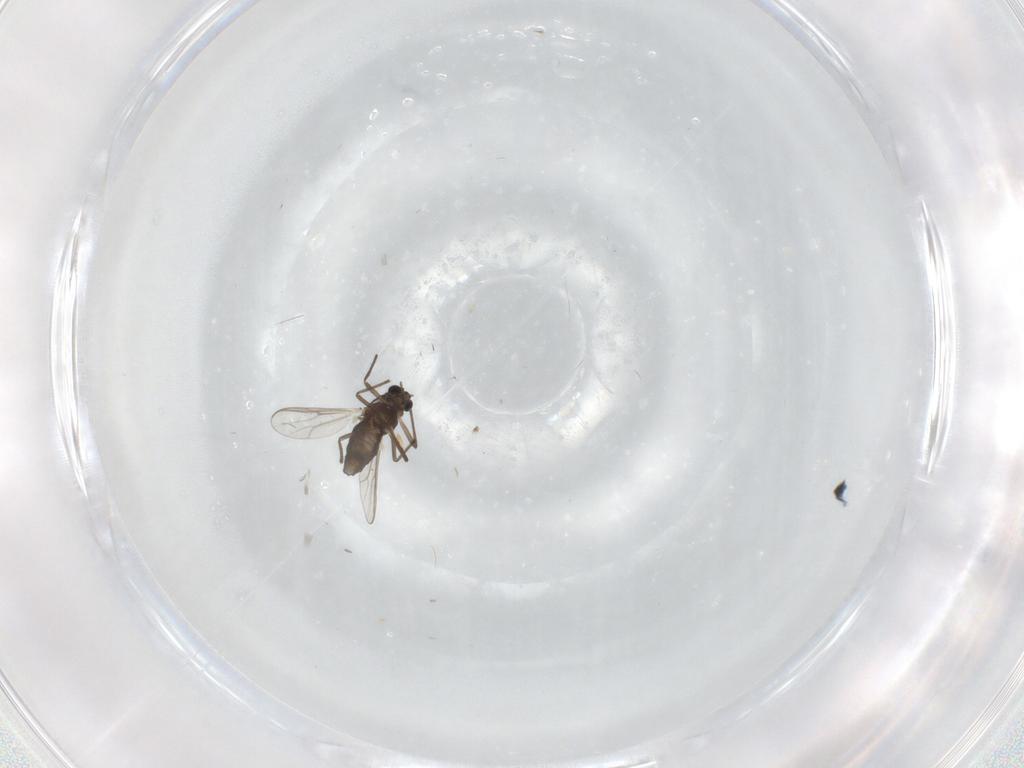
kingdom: Animalia
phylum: Arthropoda
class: Insecta
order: Diptera
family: Chironomidae
